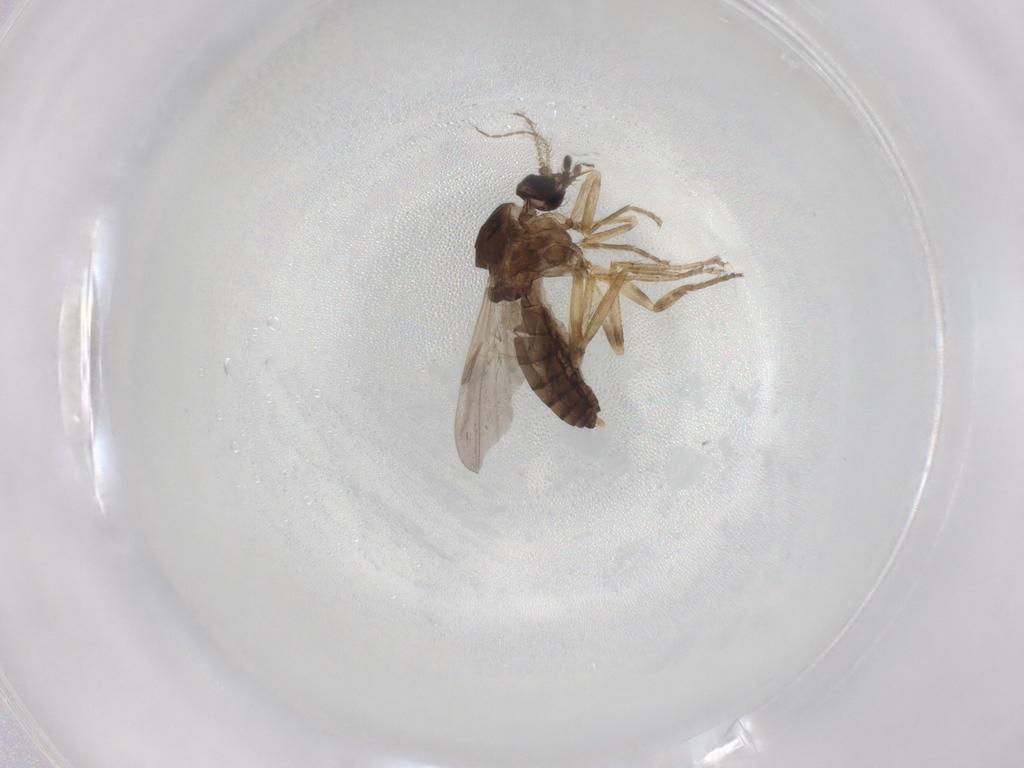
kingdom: Animalia
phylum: Arthropoda
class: Insecta
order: Diptera
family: Ceratopogonidae
